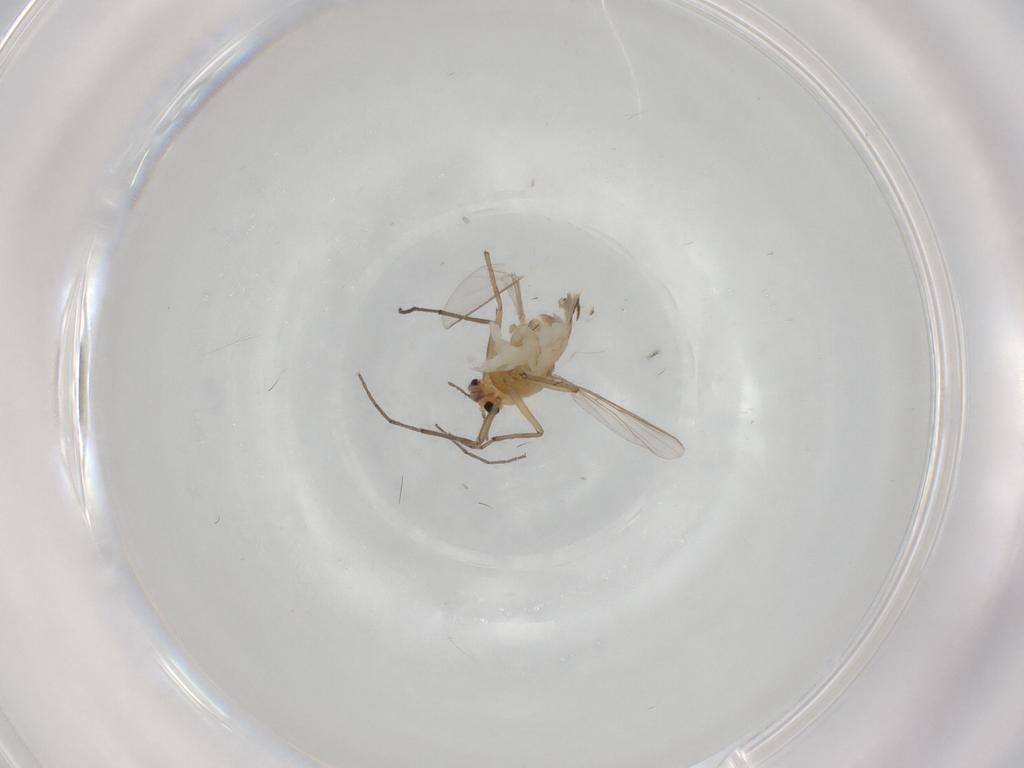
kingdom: Animalia
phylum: Arthropoda
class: Insecta
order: Diptera
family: Chironomidae
